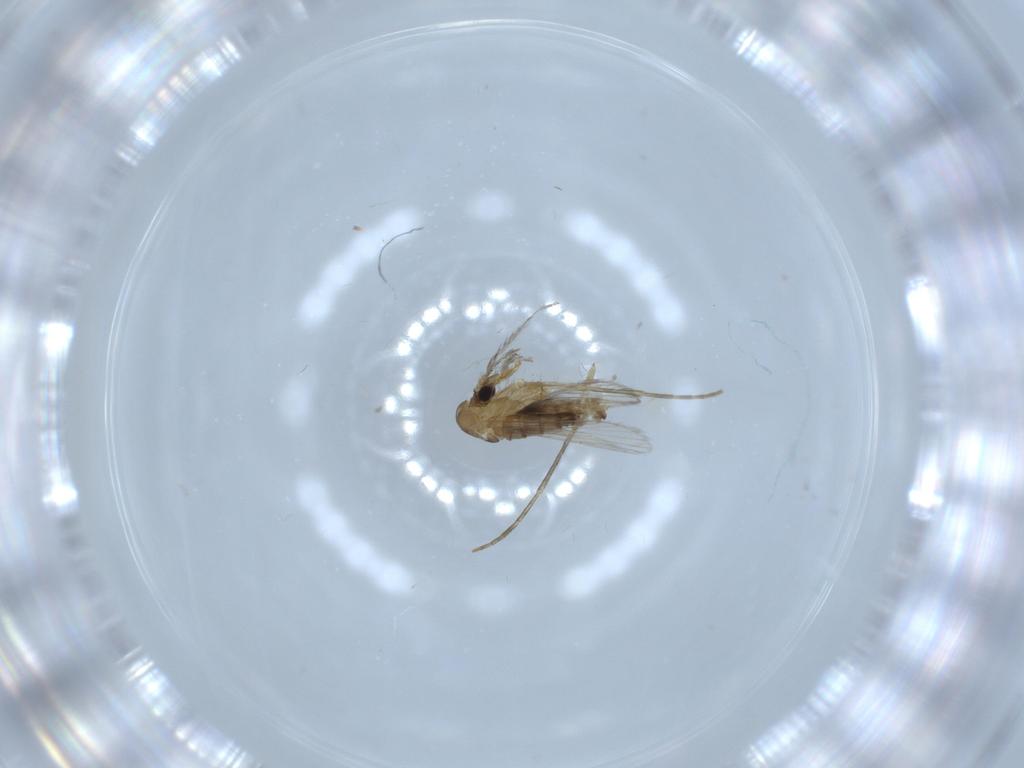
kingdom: Animalia
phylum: Arthropoda
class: Insecta
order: Diptera
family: Psychodidae
